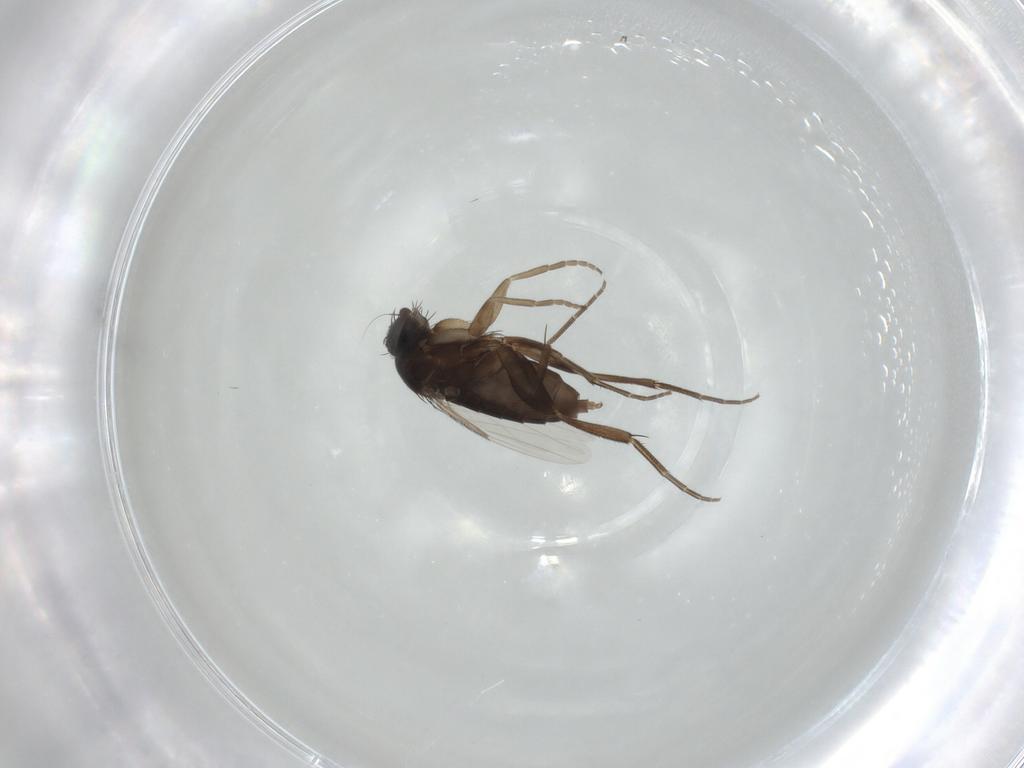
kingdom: Animalia
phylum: Arthropoda
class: Insecta
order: Diptera
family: Phoridae
